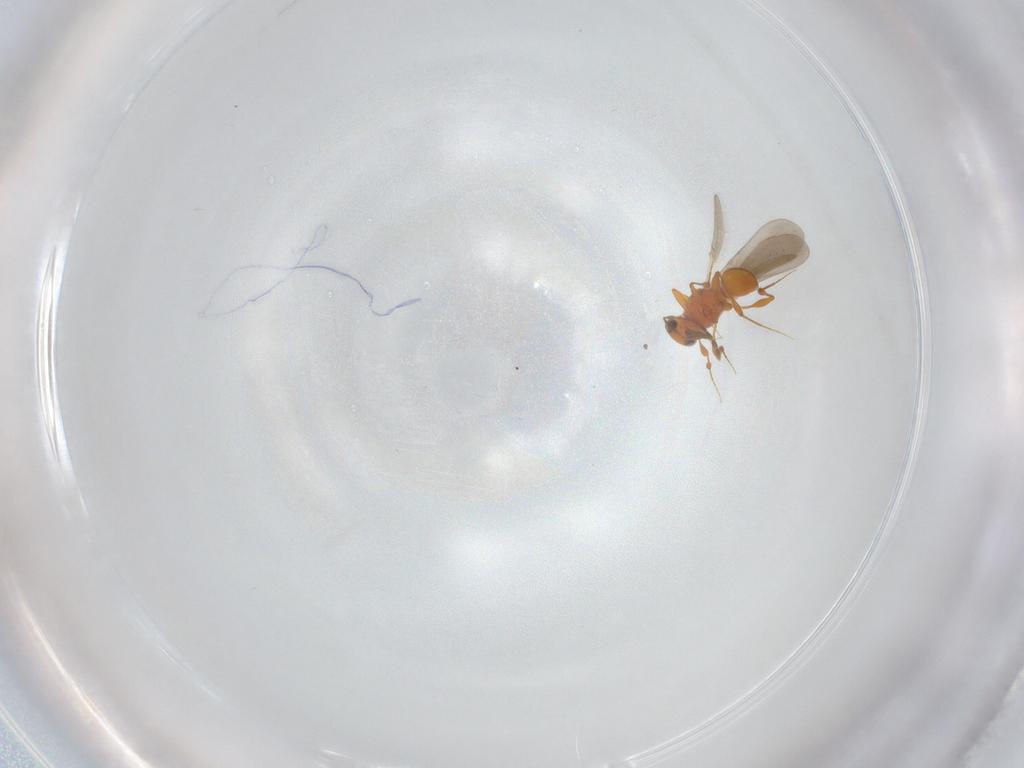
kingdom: Animalia
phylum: Arthropoda
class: Insecta
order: Hymenoptera
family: Platygastridae
